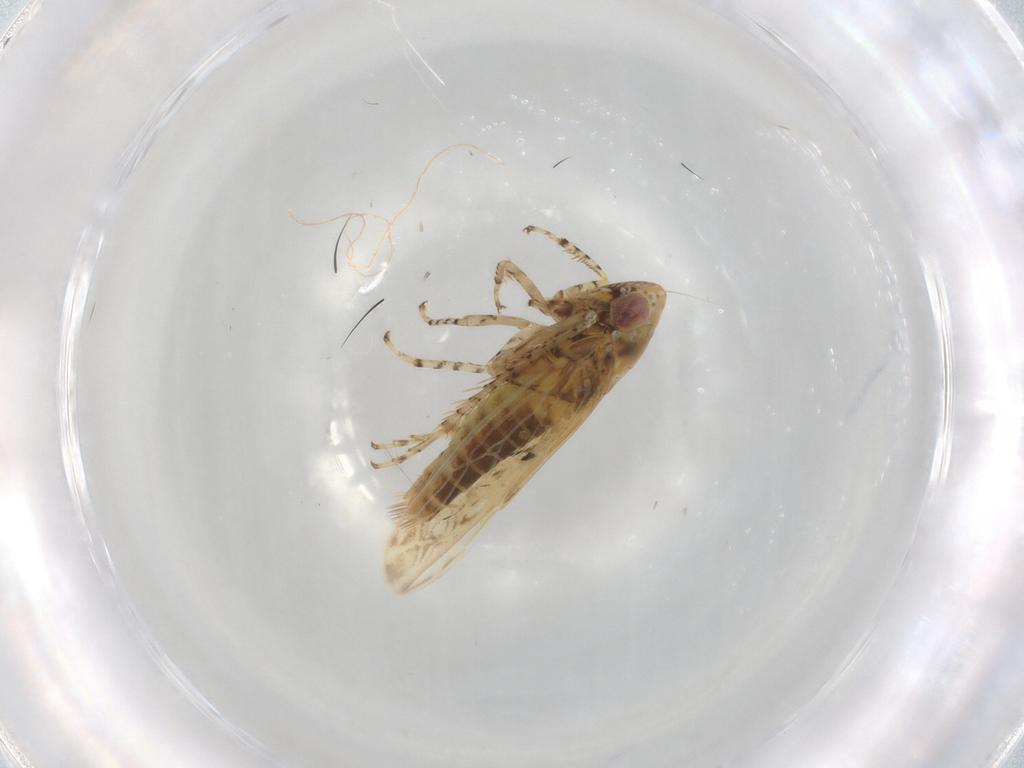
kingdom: Animalia
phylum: Arthropoda
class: Insecta
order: Hemiptera
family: Cicadellidae
